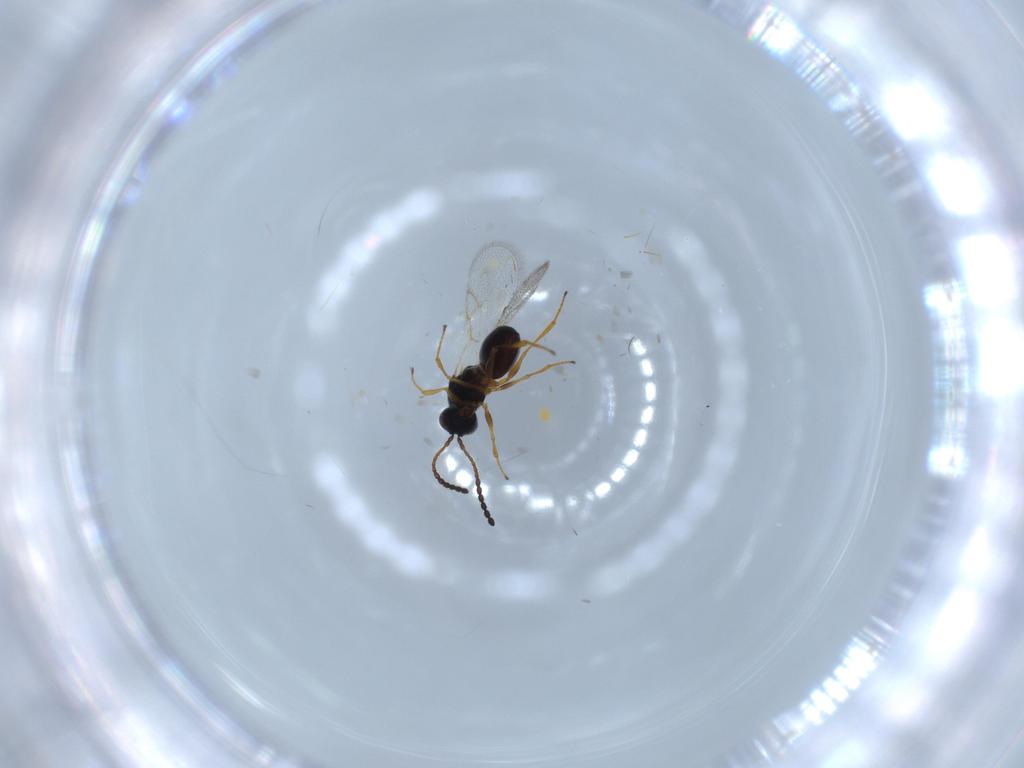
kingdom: Animalia
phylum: Arthropoda
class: Insecta
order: Hymenoptera
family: Figitidae
